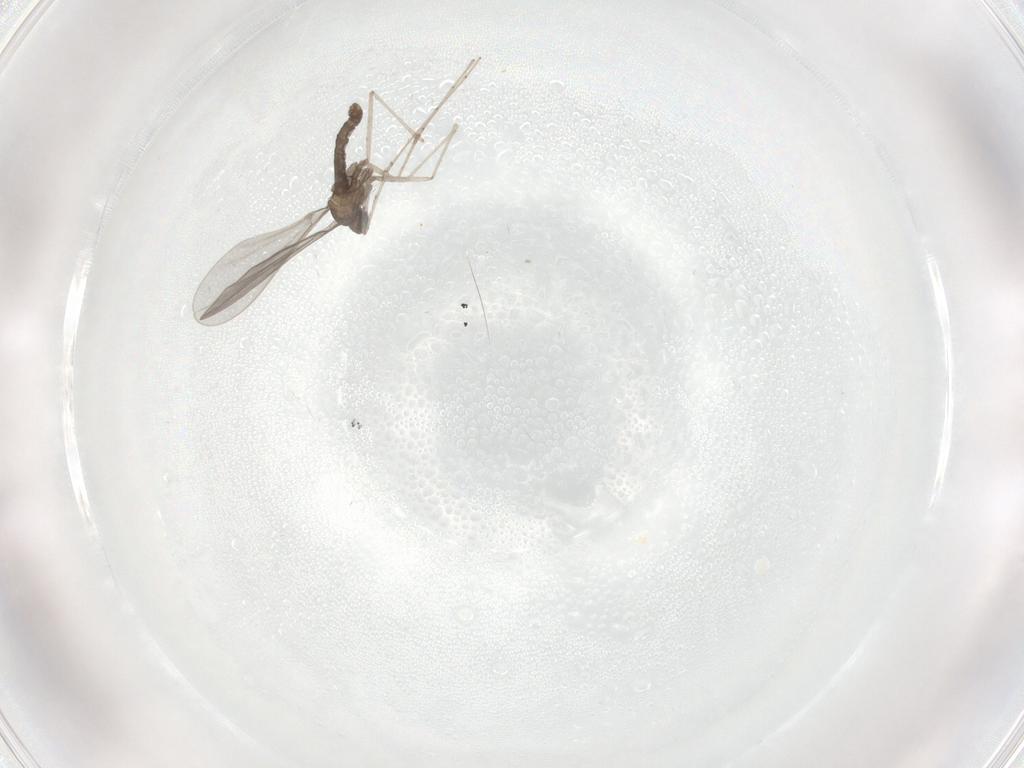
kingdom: Animalia
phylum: Arthropoda
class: Insecta
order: Diptera
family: Cecidomyiidae
